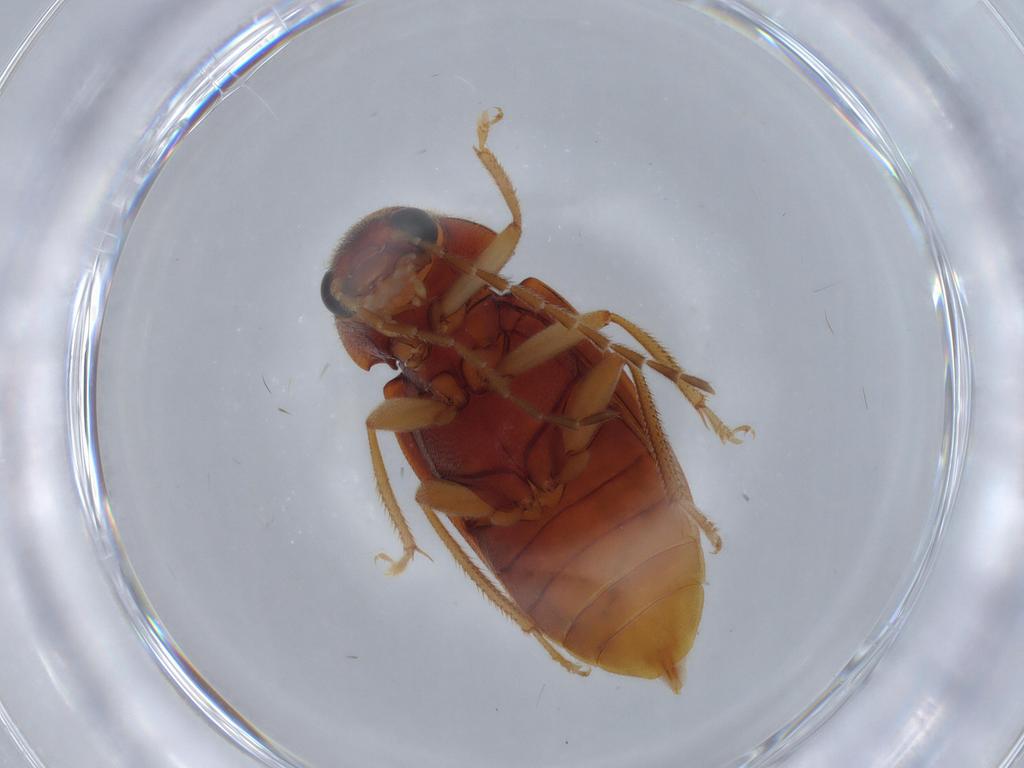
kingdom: Animalia
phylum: Arthropoda
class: Insecta
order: Coleoptera
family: Ptilodactylidae
